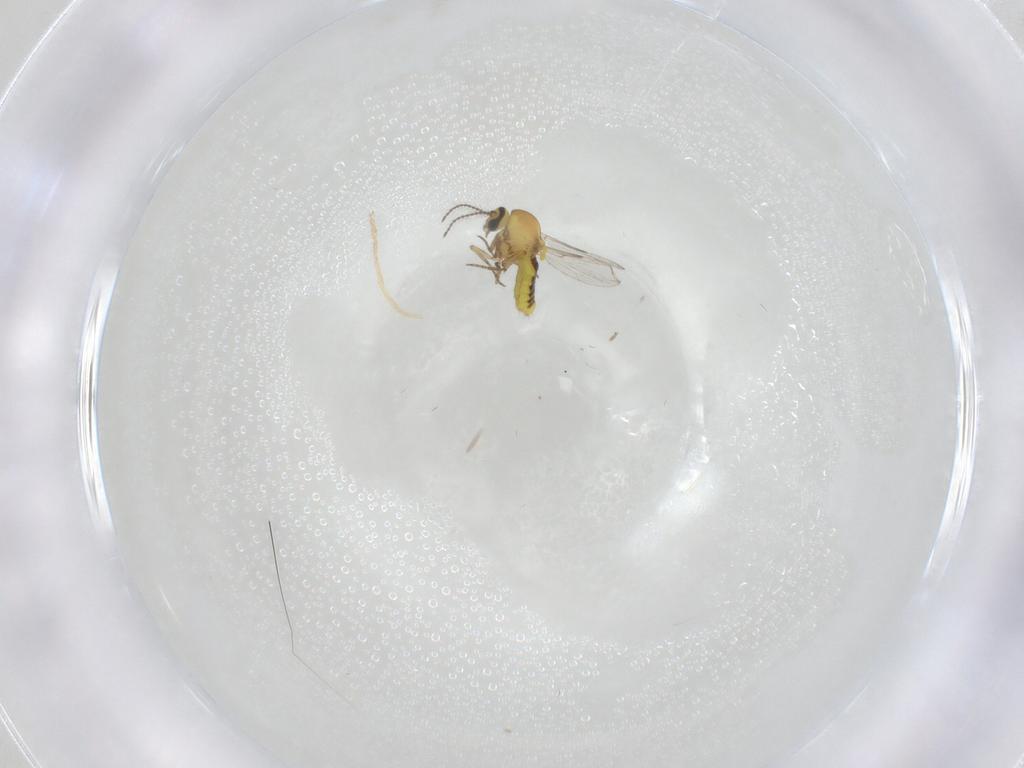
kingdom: Animalia
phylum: Arthropoda
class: Insecta
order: Diptera
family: Ceratopogonidae
